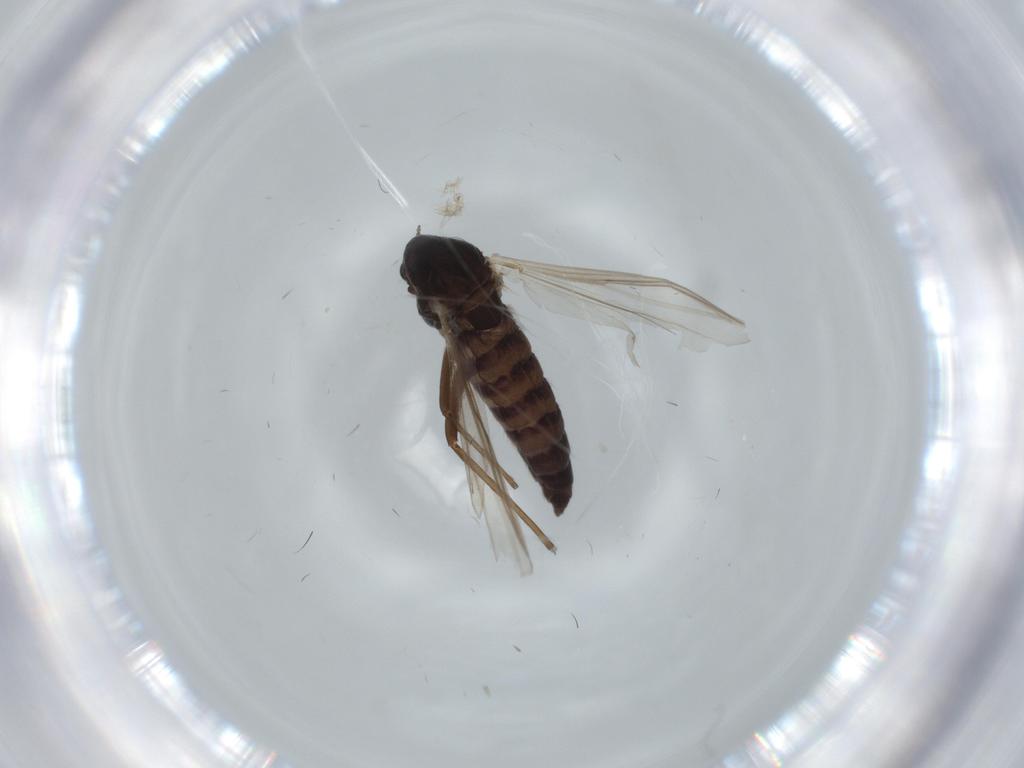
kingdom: Animalia
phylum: Arthropoda
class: Insecta
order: Diptera
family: Chironomidae
